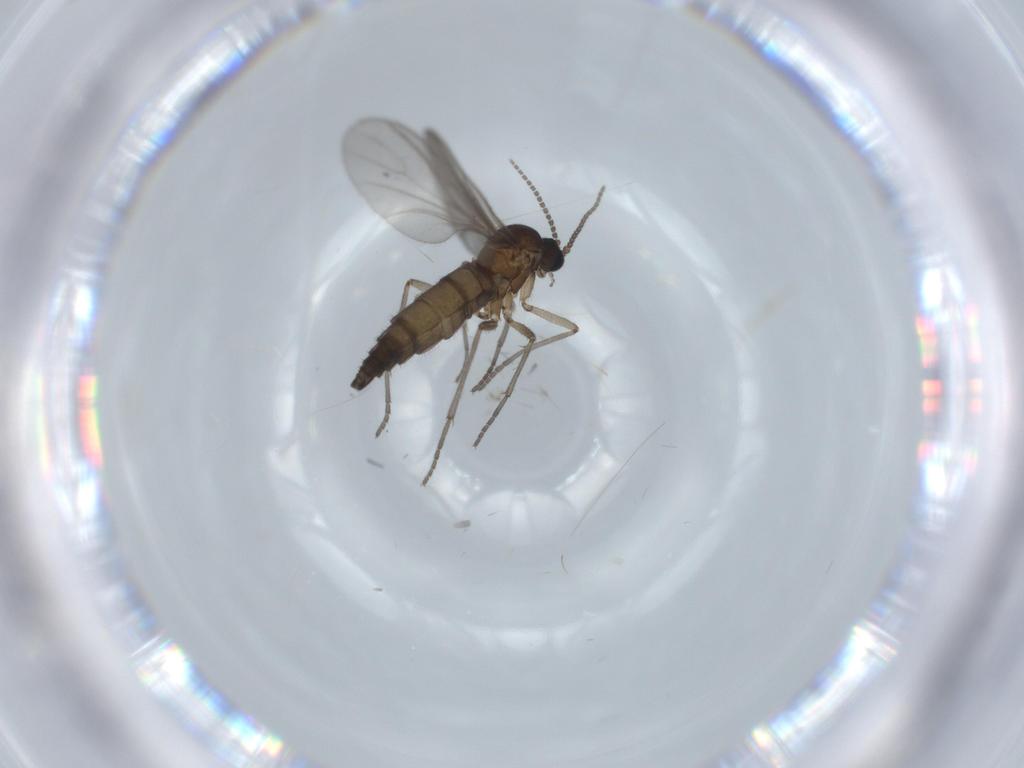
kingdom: Animalia
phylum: Arthropoda
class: Insecta
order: Diptera
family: Sciaridae
